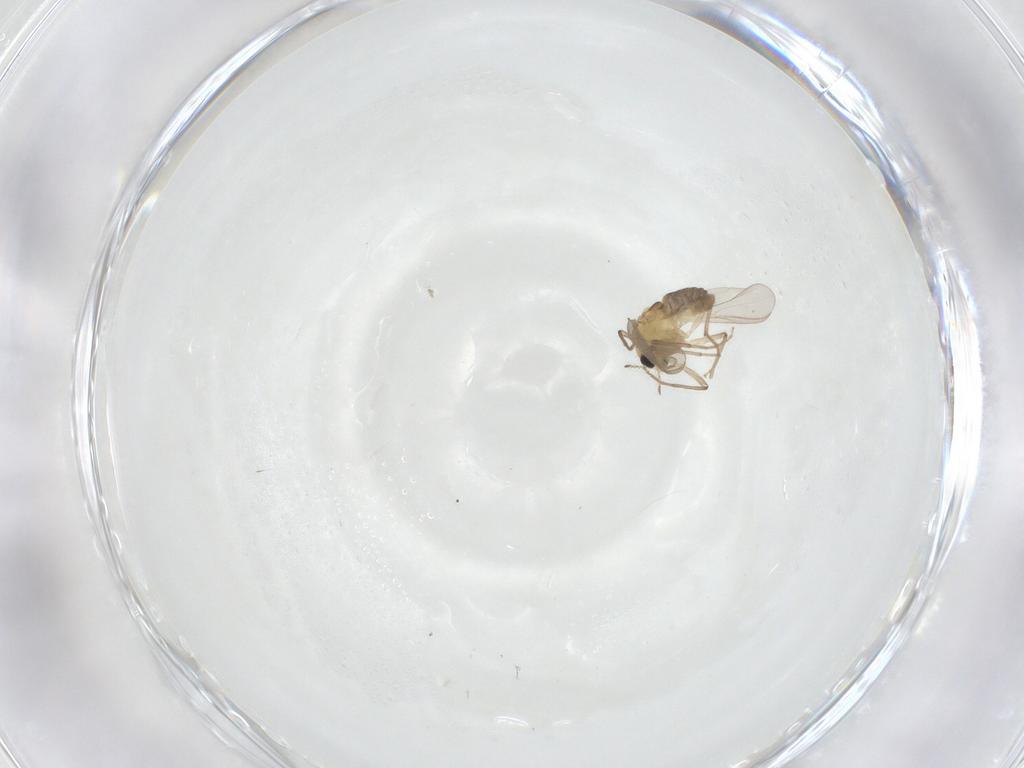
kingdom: Animalia
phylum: Arthropoda
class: Insecta
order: Diptera
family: Chironomidae
